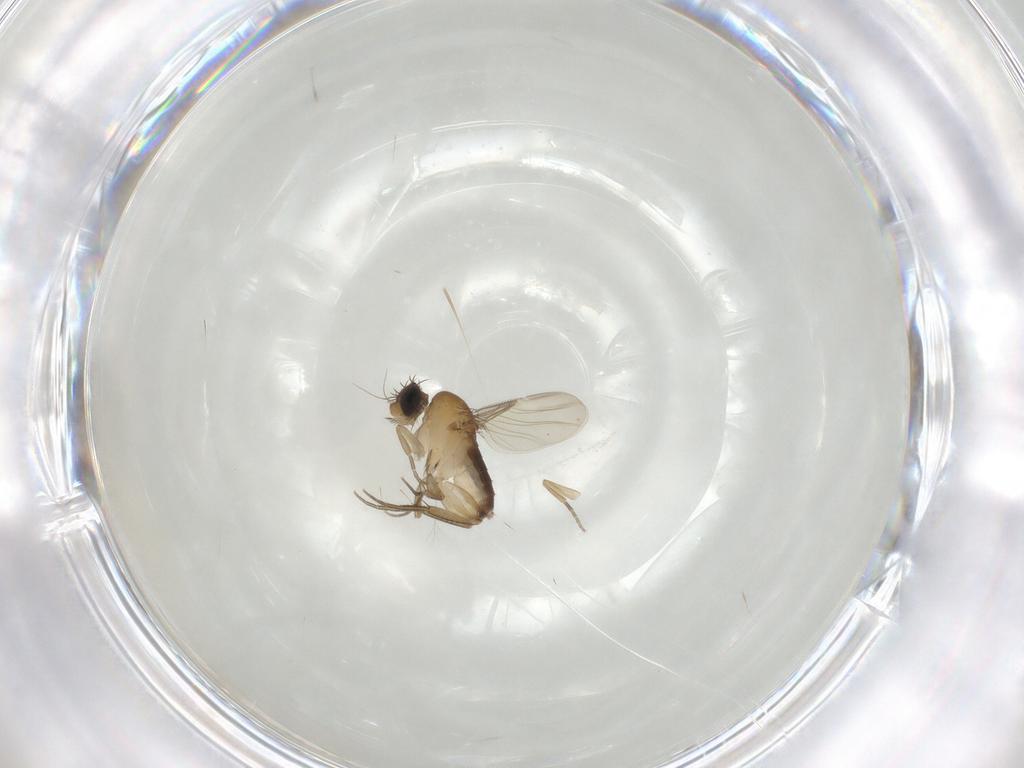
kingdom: Animalia
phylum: Arthropoda
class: Insecta
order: Diptera
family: Phoridae
